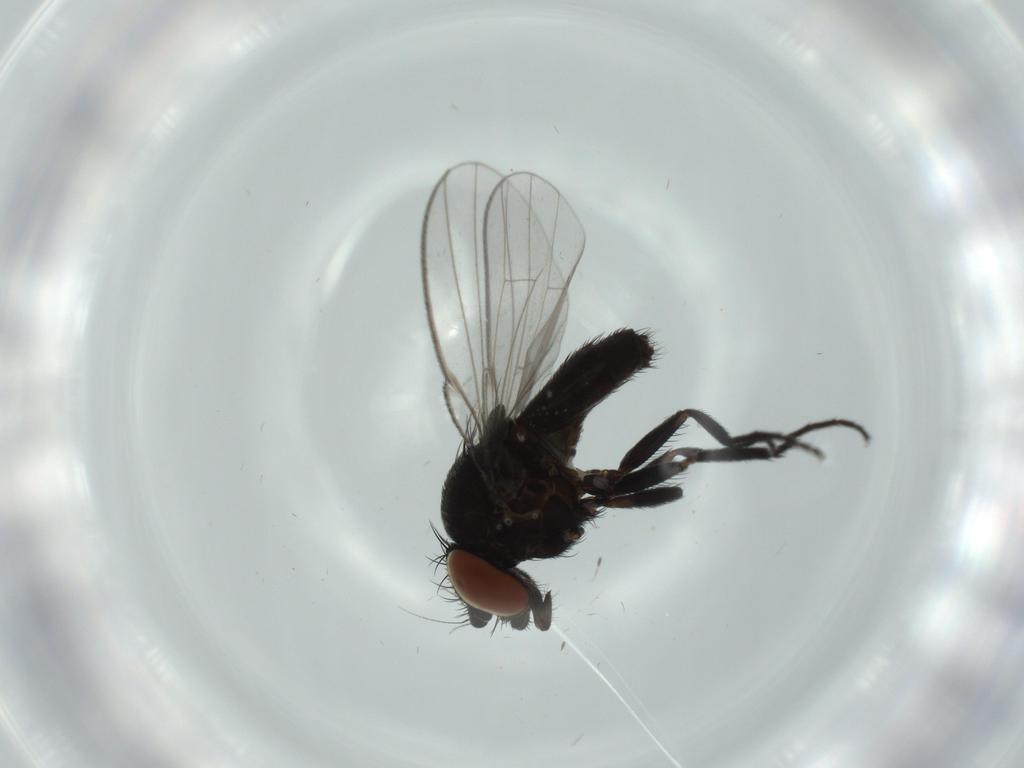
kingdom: Animalia
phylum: Arthropoda
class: Insecta
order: Diptera
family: Milichiidae
